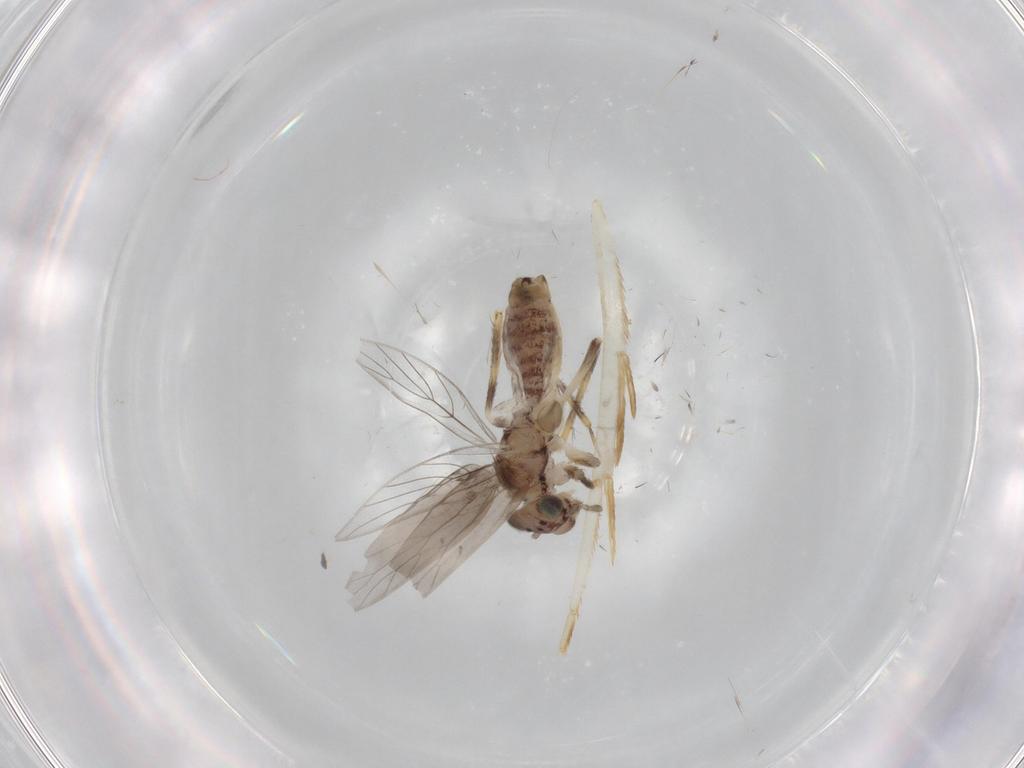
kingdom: Animalia
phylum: Arthropoda
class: Insecta
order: Psocodea
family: Lepidopsocidae
